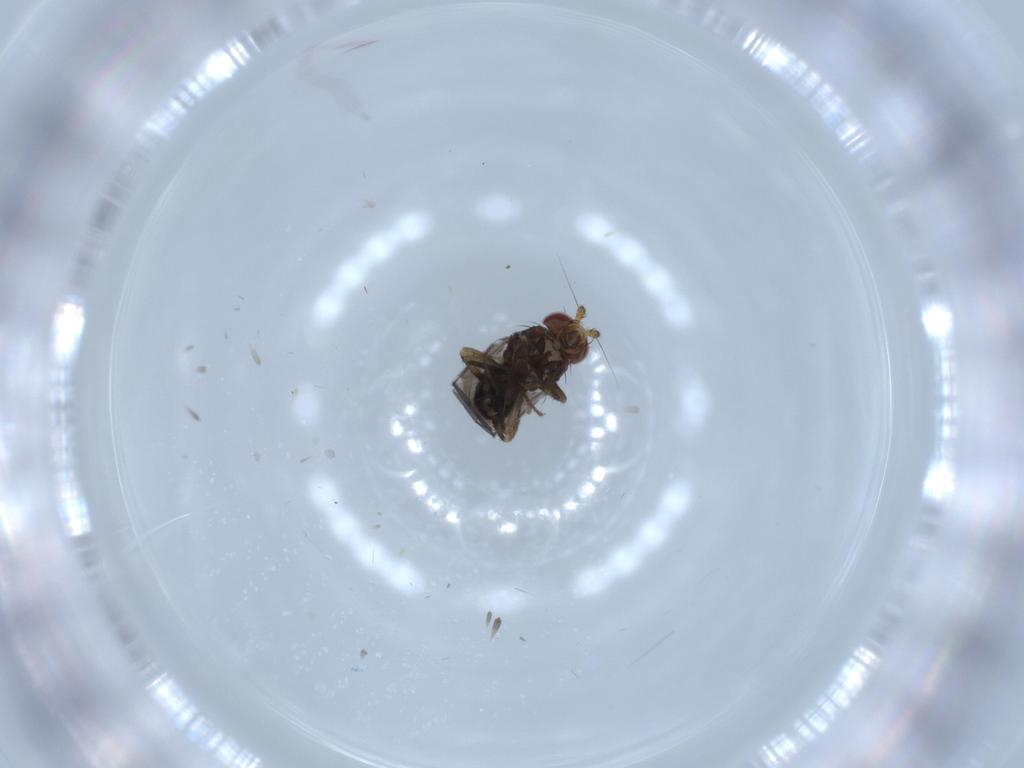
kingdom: Animalia
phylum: Arthropoda
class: Insecta
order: Diptera
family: Sphaeroceridae
